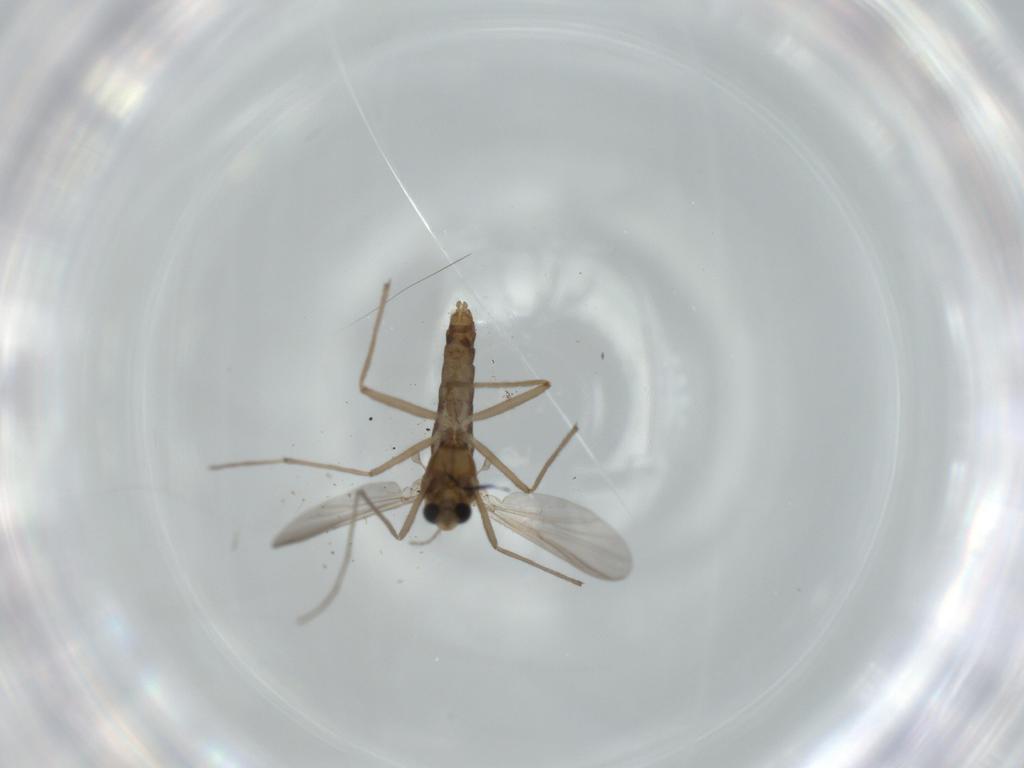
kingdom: Animalia
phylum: Arthropoda
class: Insecta
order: Diptera
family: Chironomidae
